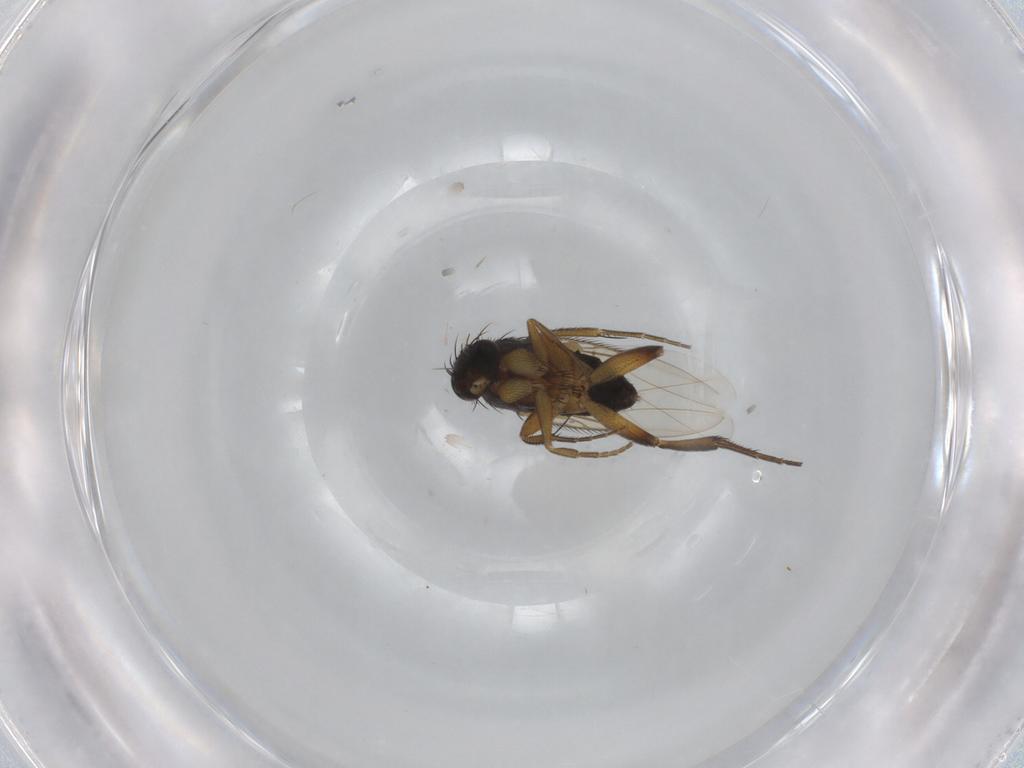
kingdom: Animalia
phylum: Arthropoda
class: Insecta
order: Diptera
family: Phoridae
